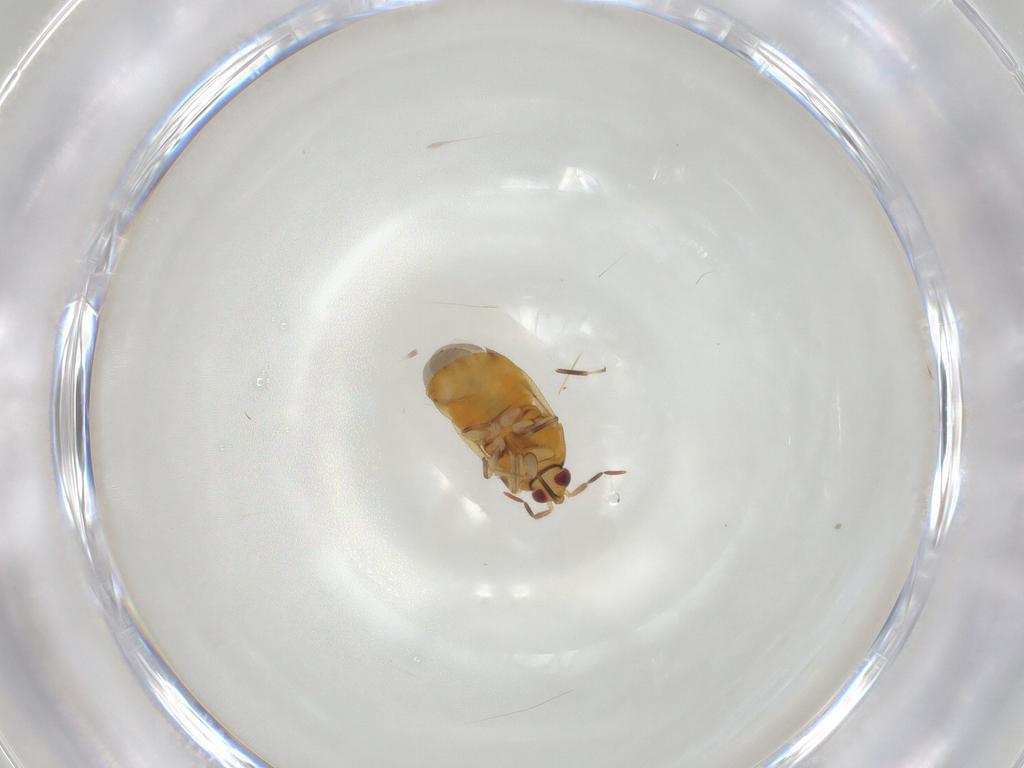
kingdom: Animalia
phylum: Arthropoda
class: Insecta
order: Hemiptera
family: Anthocoridae
